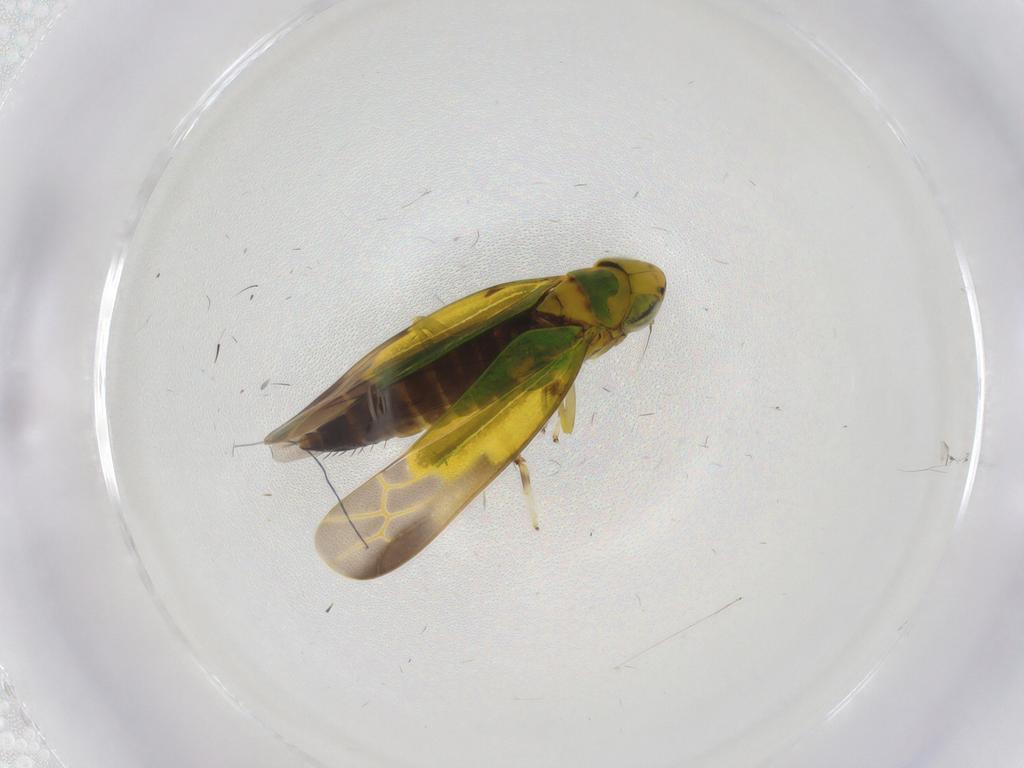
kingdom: Animalia
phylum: Arthropoda
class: Insecta
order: Hemiptera
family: Cicadellidae
